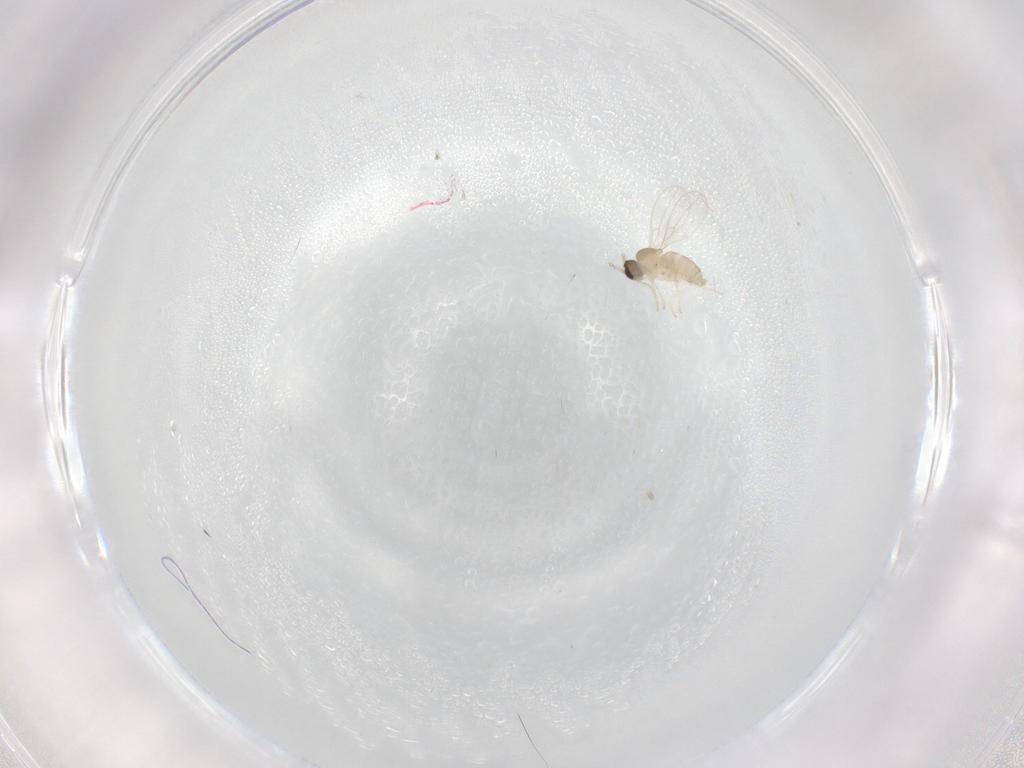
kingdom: Animalia
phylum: Arthropoda
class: Insecta
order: Diptera
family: Cecidomyiidae
